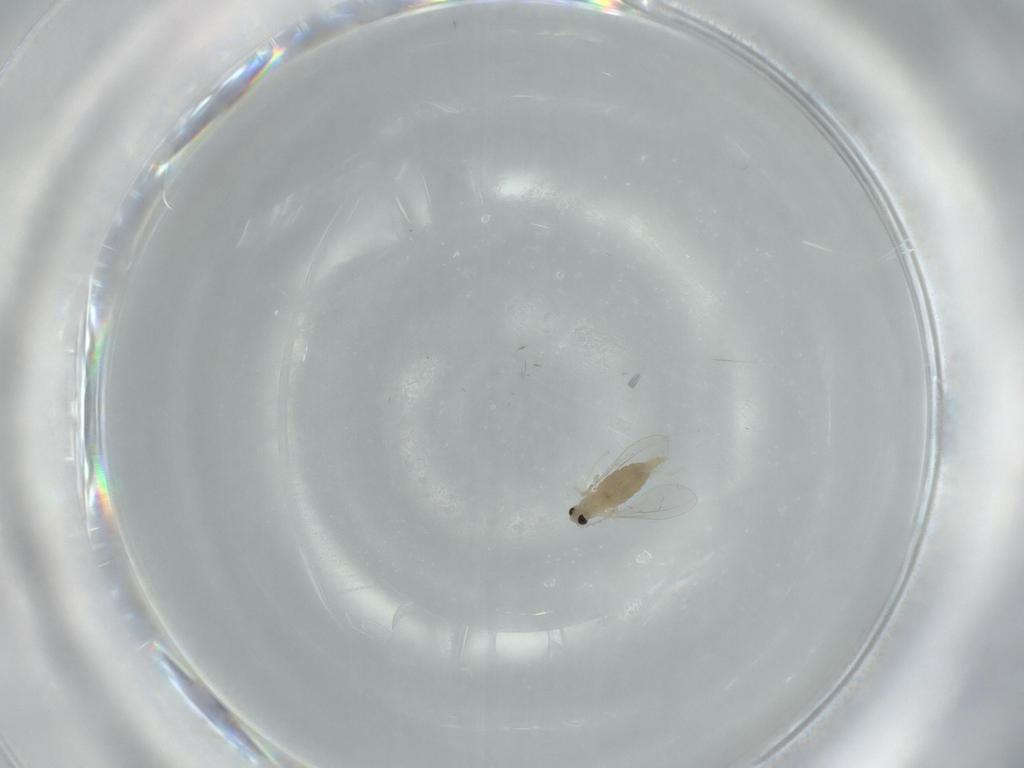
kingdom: Animalia
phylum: Arthropoda
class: Insecta
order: Diptera
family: Cecidomyiidae
